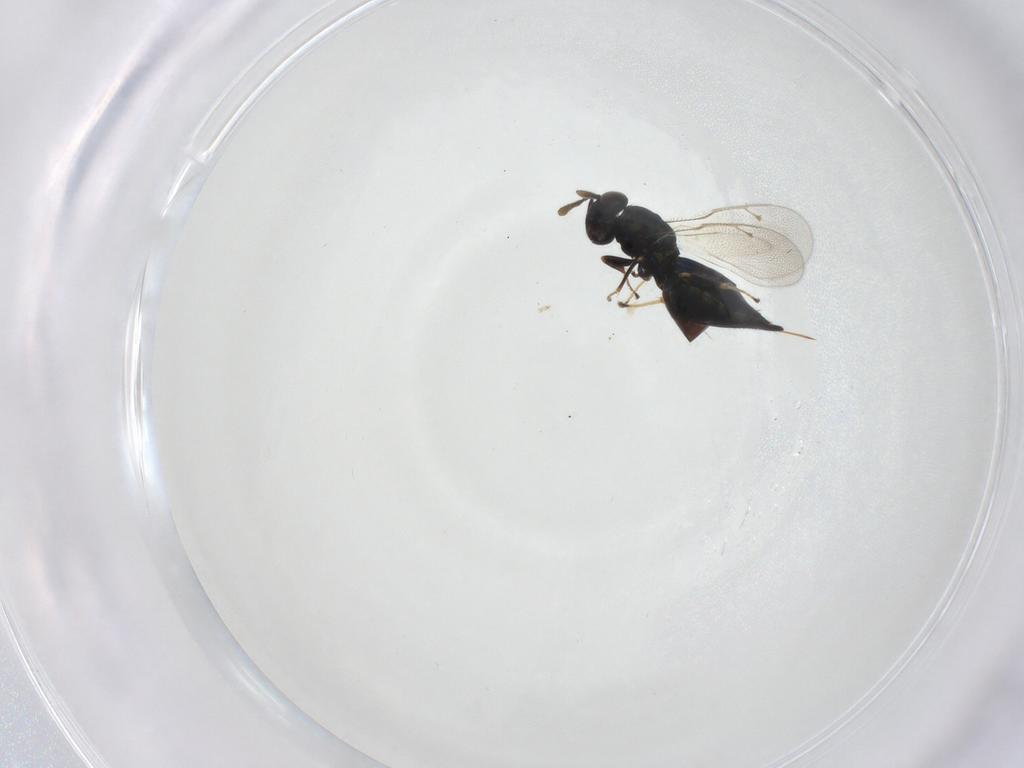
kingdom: Animalia
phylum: Arthropoda
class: Insecta
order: Hymenoptera
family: Pteromalidae
